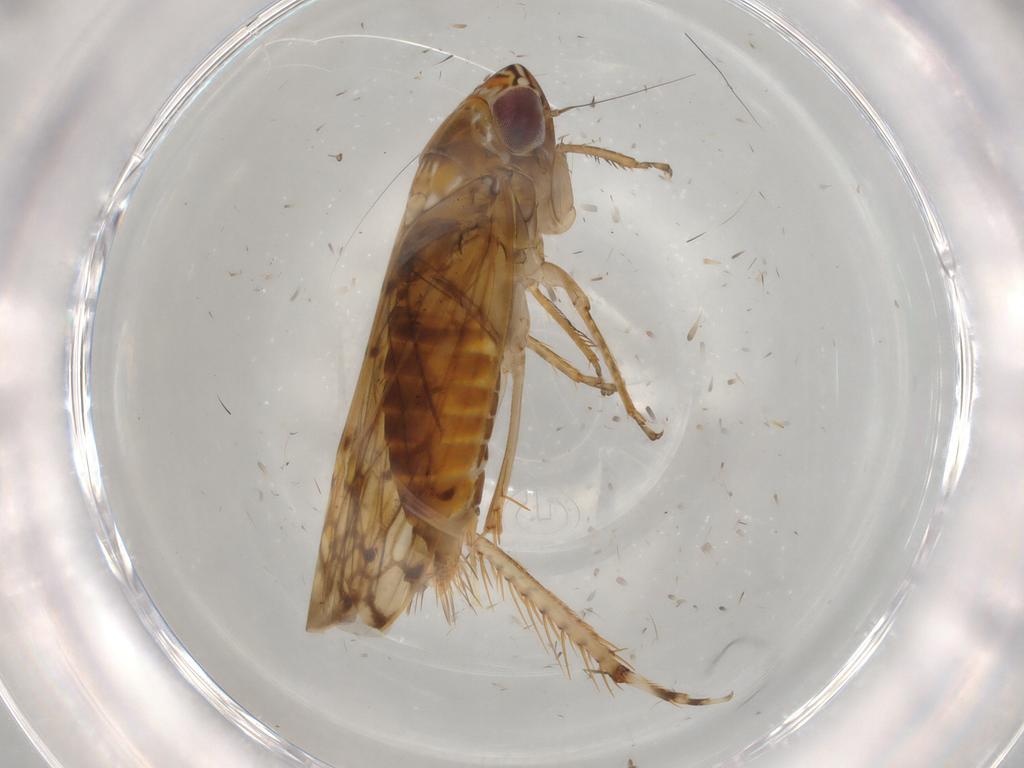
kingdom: Animalia
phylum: Arthropoda
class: Insecta
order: Hemiptera
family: Cicadellidae
